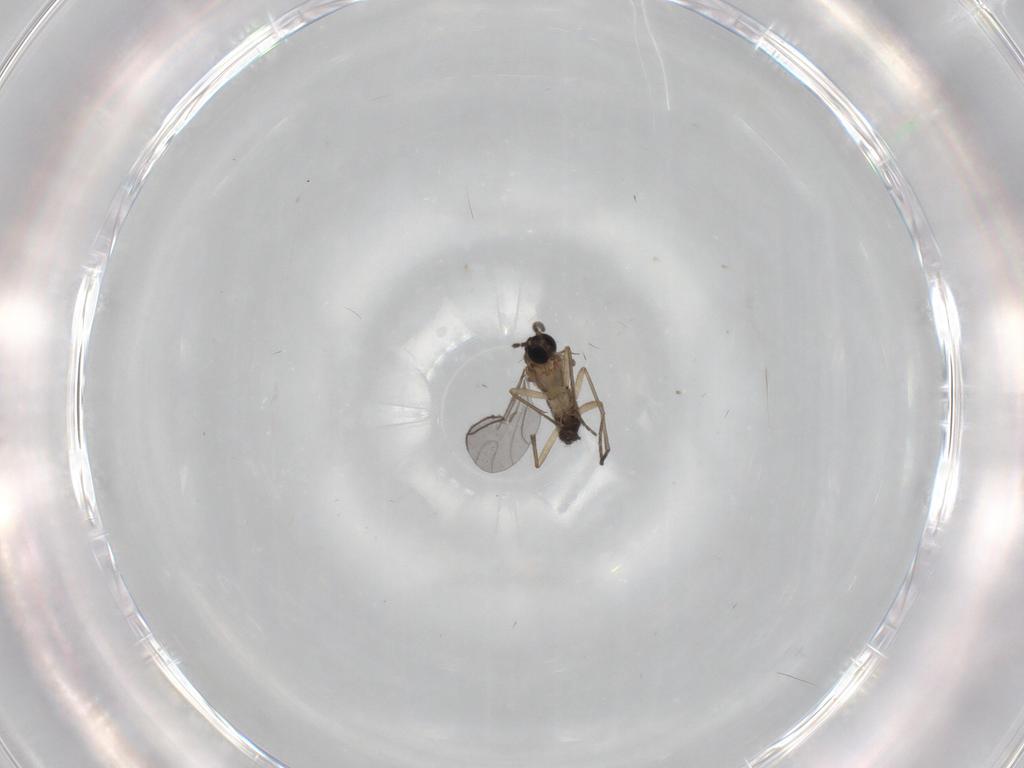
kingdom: Animalia
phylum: Arthropoda
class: Insecta
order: Diptera
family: Sciaridae
